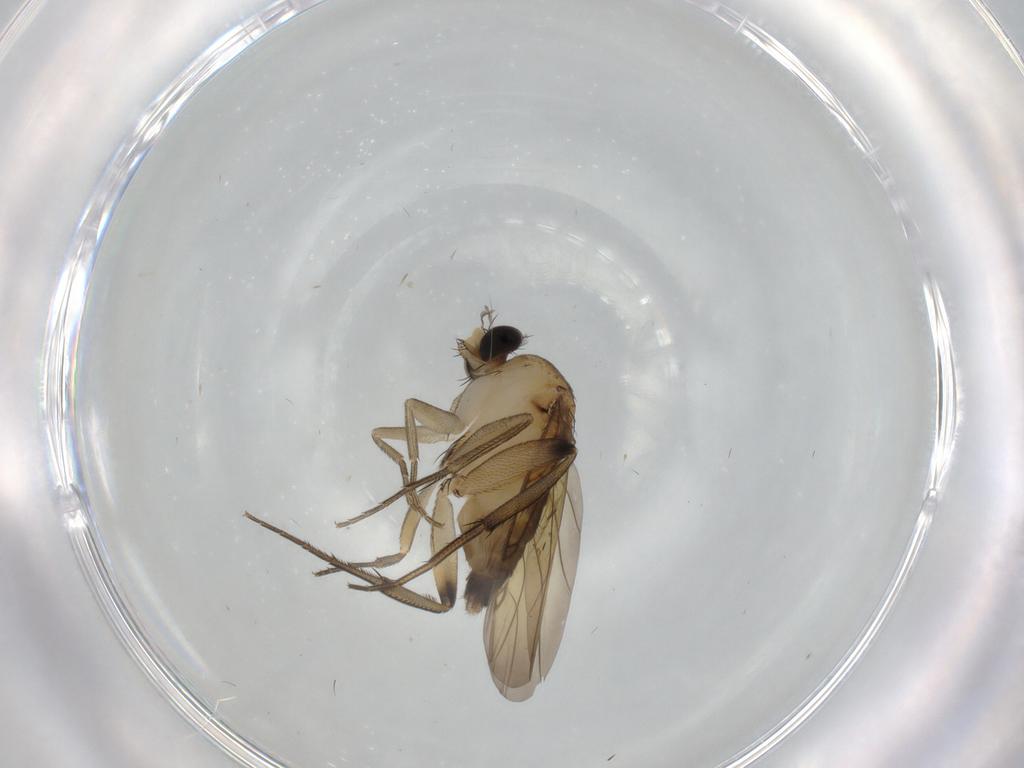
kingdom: Animalia
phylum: Arthropoda
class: Insecta
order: Diptera
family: Phoridae
